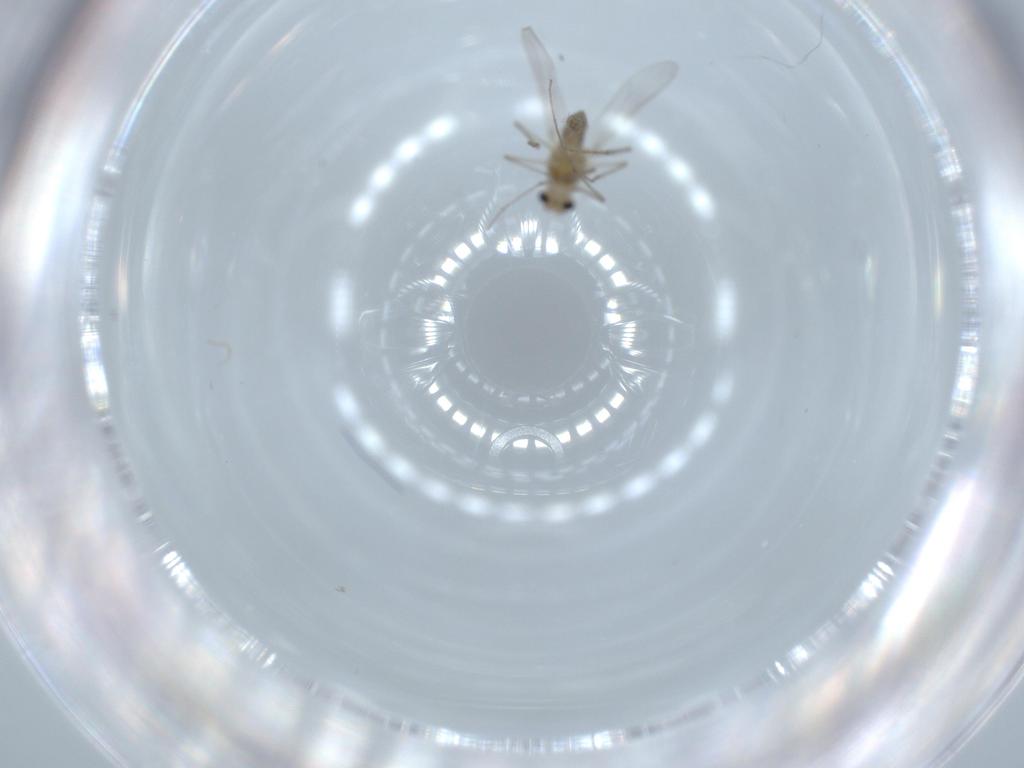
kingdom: Animalia
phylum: Arthropoda
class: Insecta
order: Diptera
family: Chironomidae
